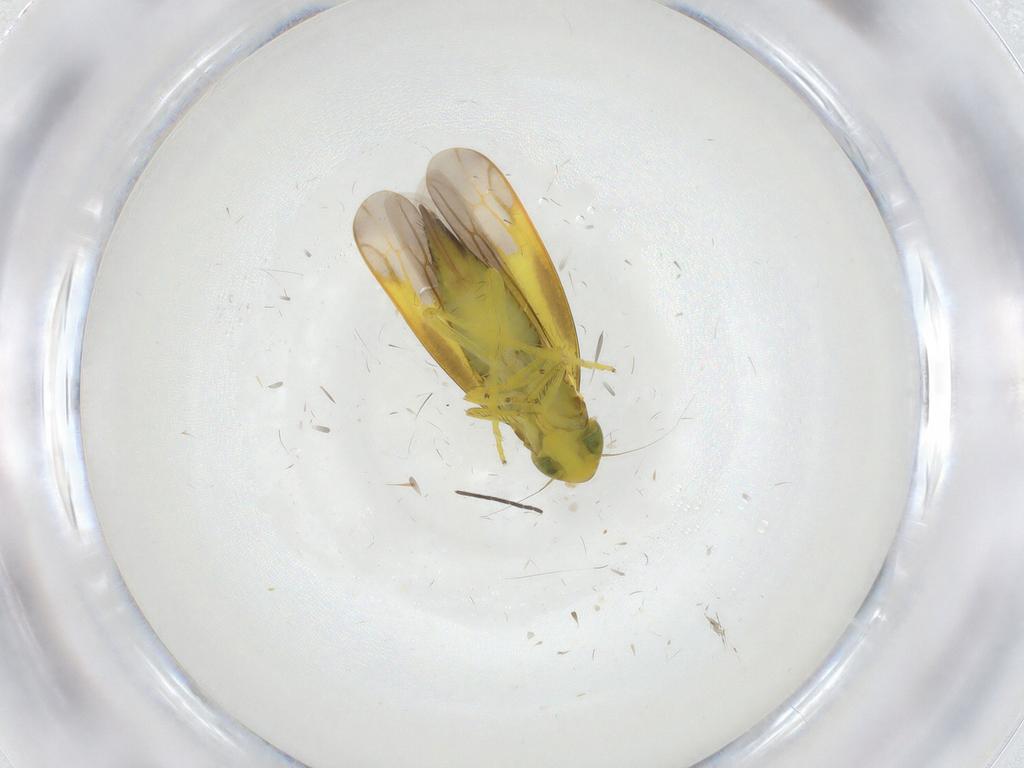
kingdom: Animalia
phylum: Arthropoda
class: Insecta
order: Hemiptera
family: Cicadellidae
